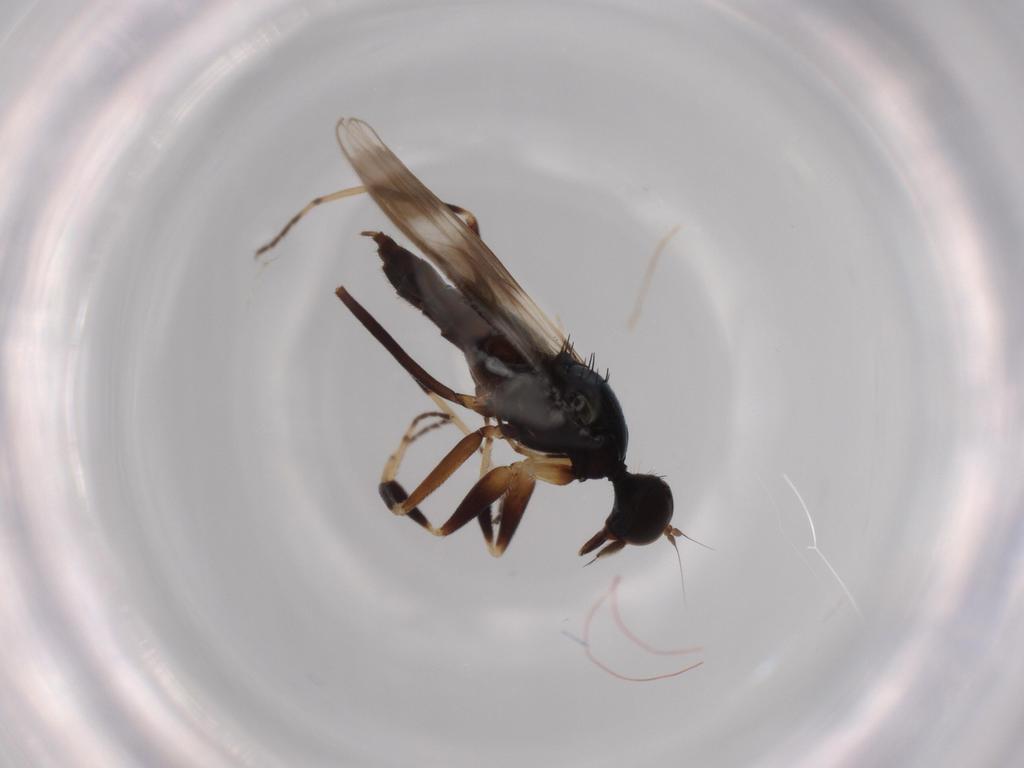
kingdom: Animalia
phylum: Arthropoda
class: Insecta
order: Diptera
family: Hybotidae
